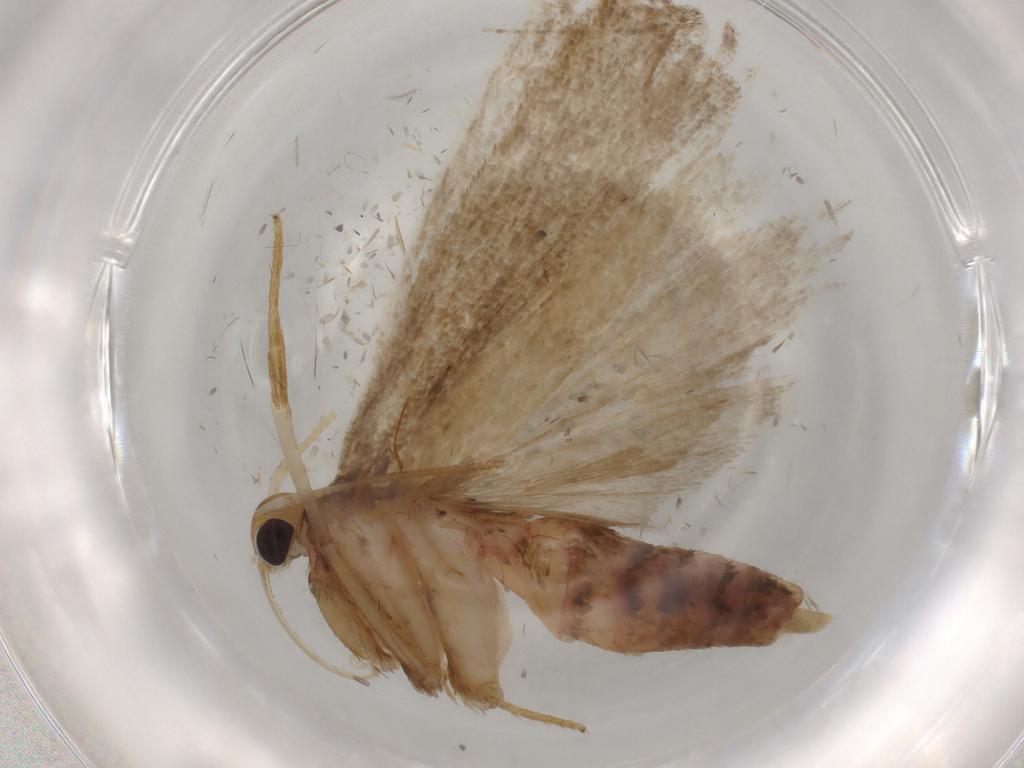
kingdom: Animalia
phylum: Arthropoda
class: Insecta
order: Lepidoptera
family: Autostichidae
